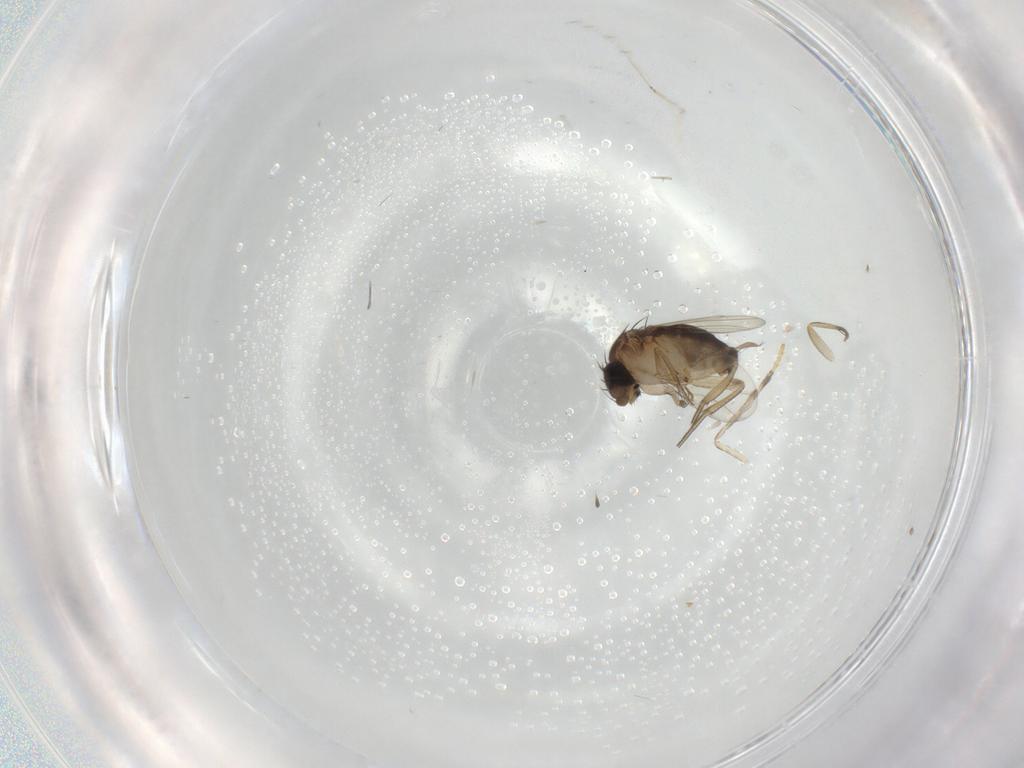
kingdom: Animalia
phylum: Arthropoda
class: Insecta
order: Diptera
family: Psychodidae
